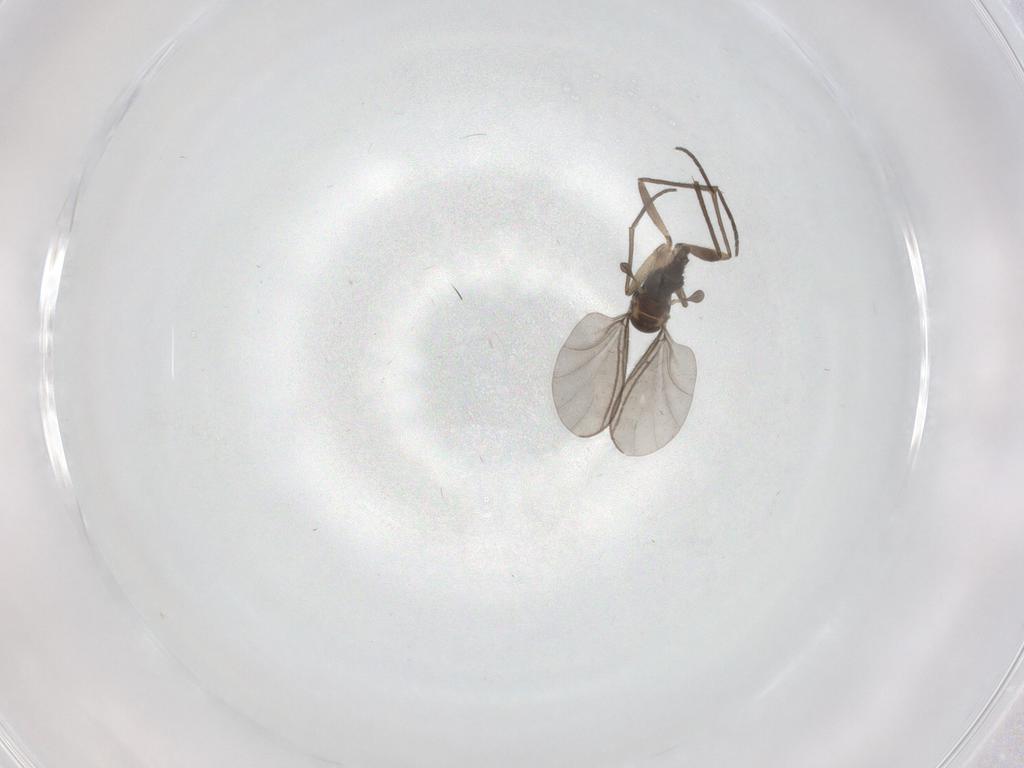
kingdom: Animalia
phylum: Arthropoda
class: Insecta
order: Diptera
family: Sciaridae
